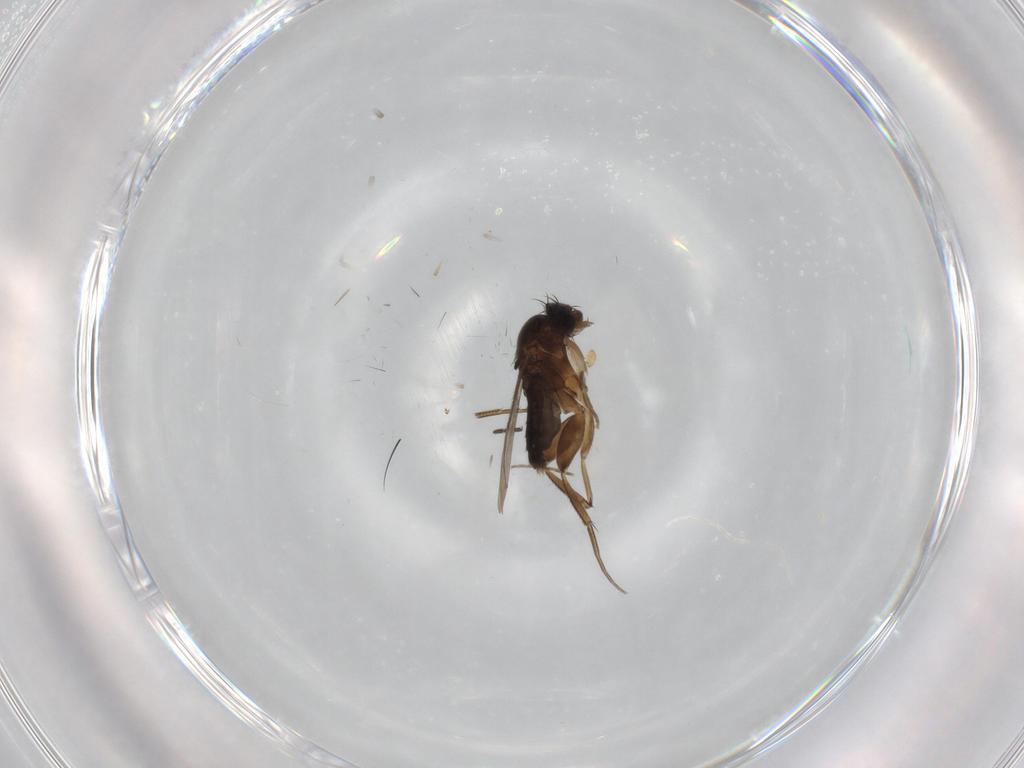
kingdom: Animalia
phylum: Arthropoda
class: Insecta
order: Diptera
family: Phoridae
